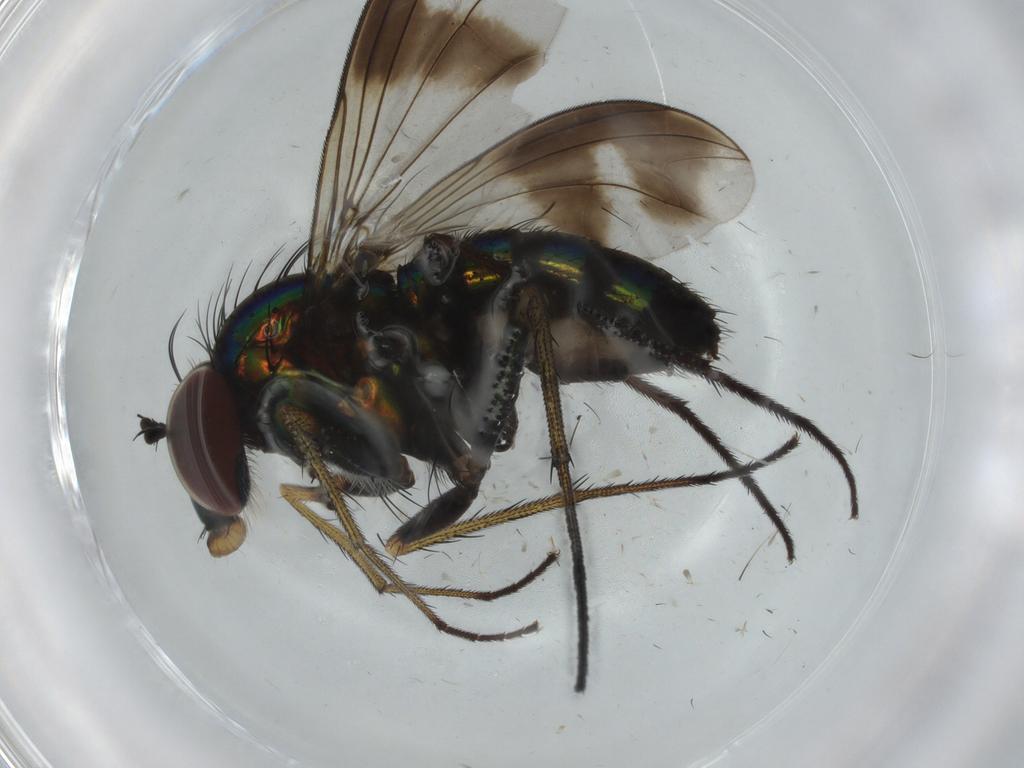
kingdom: Animalia
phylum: Arthropoda
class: Insecta
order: Diptera
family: Dolichopodidae
